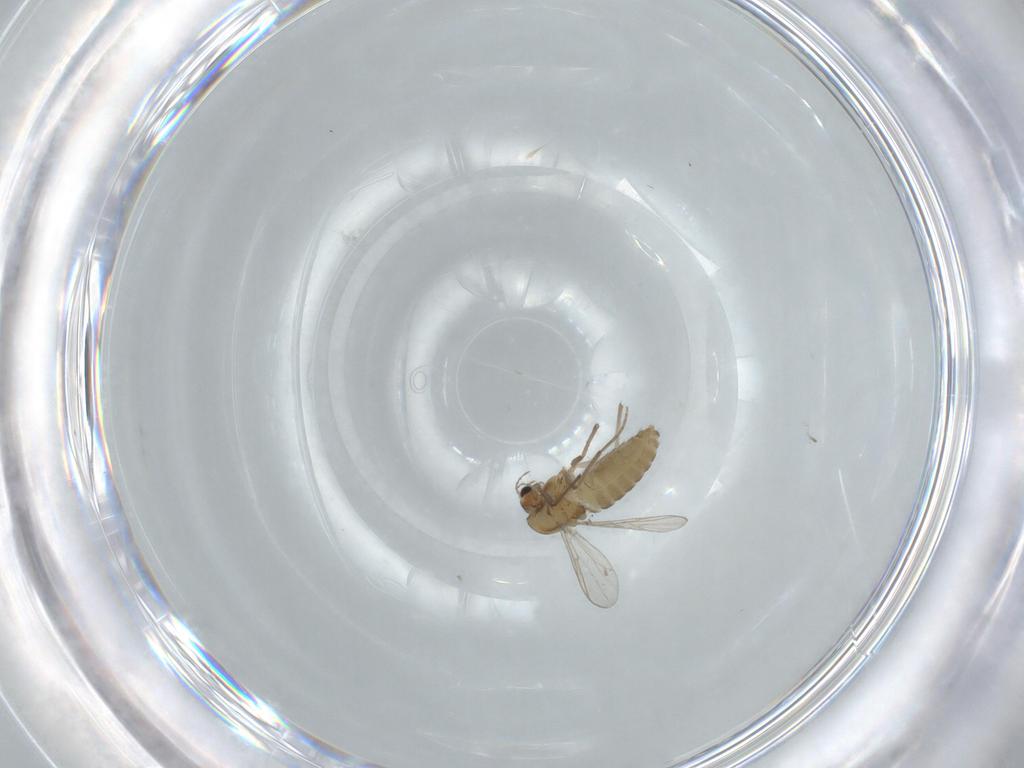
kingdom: Animalia
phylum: Arthropoda
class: Insecta
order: Diptera
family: Chironomidae
